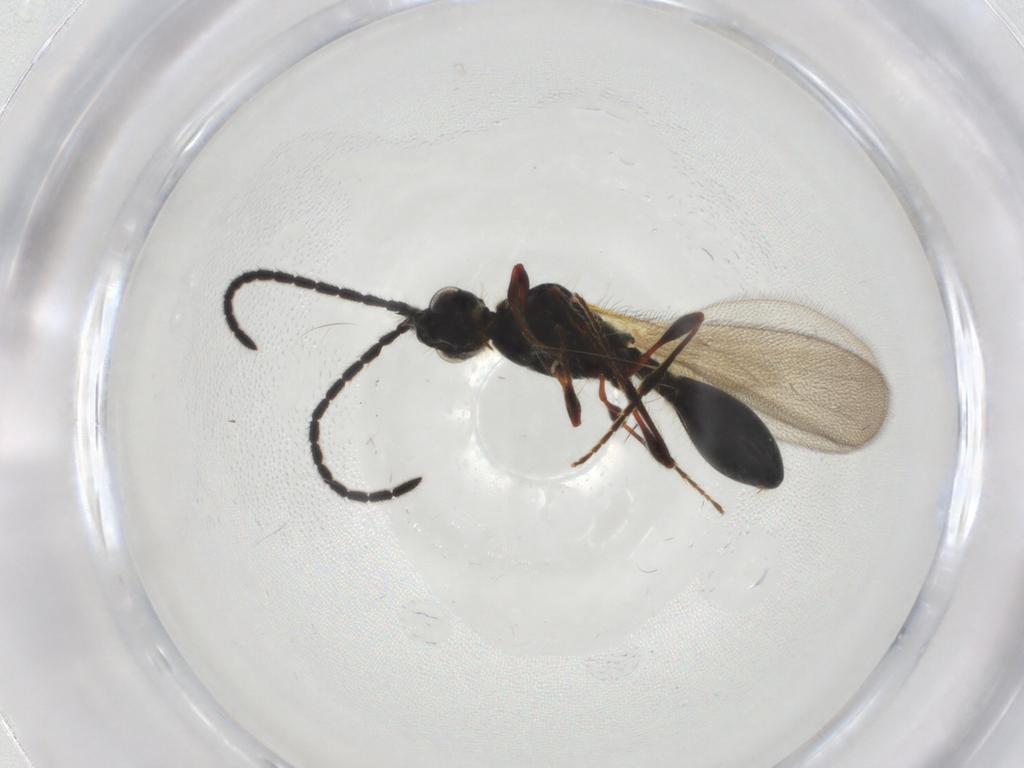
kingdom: Animalia
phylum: Arthropoda
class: Insecta
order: Hymenoptera
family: Diapriidae
